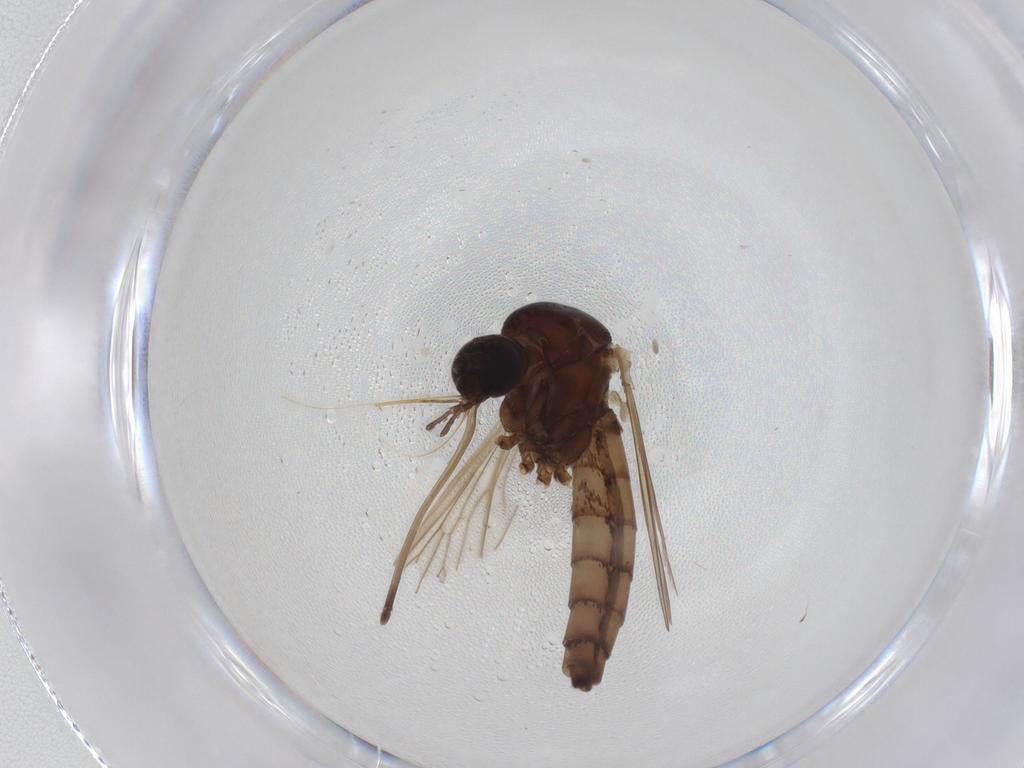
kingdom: Animalia
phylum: Arthropoda
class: Insecta
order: Diptera
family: Culicidae
